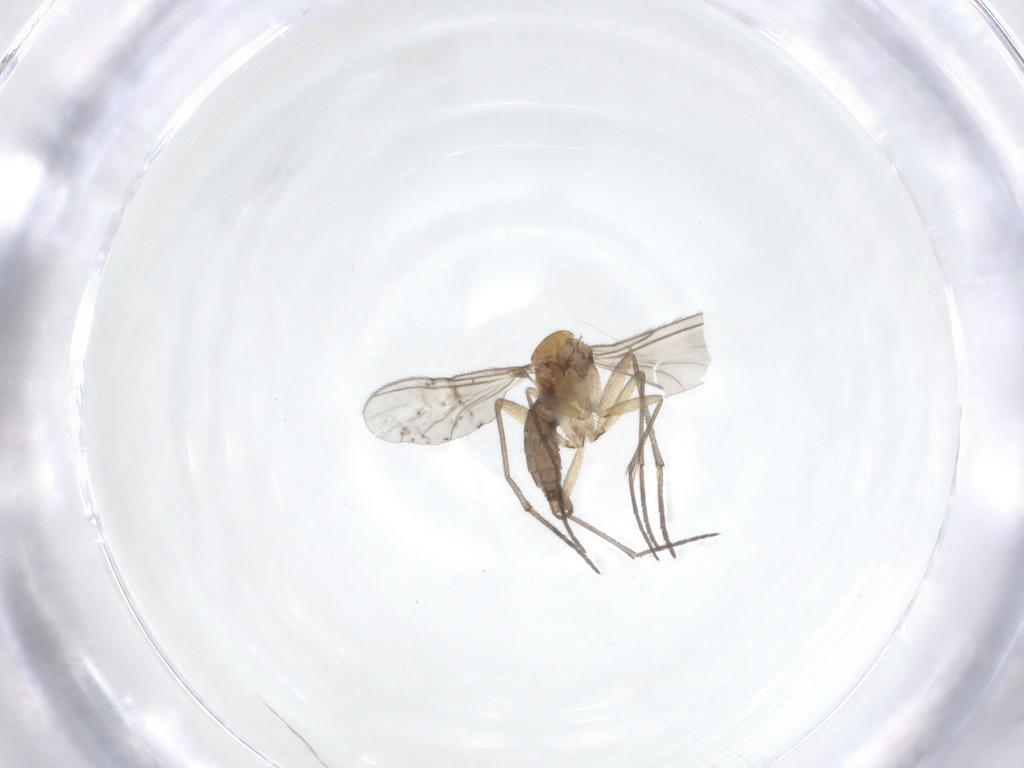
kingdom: Animalia
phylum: Arthropoda
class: Insecta
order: Diptera
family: Sciaridae
